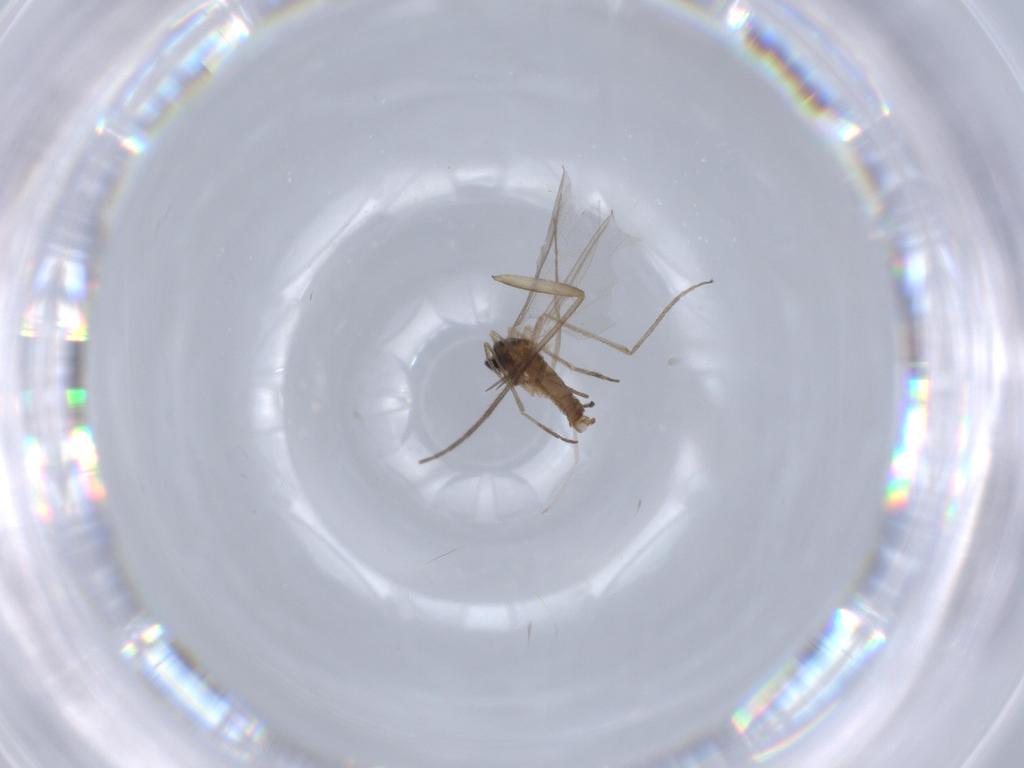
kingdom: Animalia
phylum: Arthropoda
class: Insecta
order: Diptera
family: Cecidomyiidae
